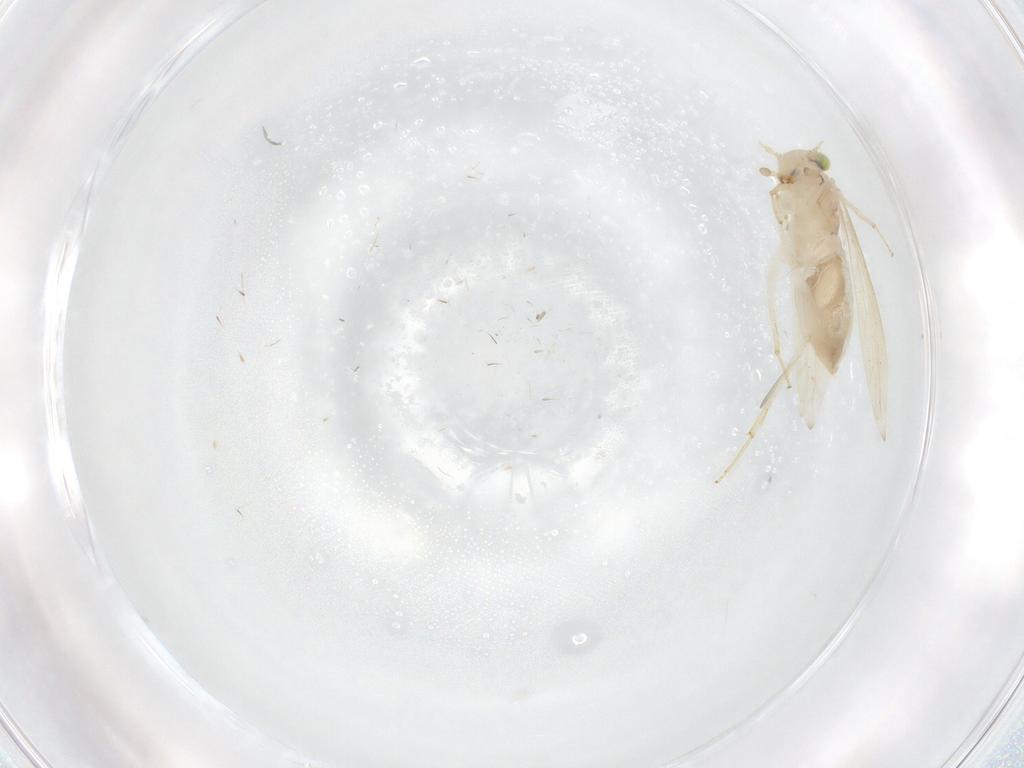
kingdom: Animalia
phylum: Arthropoda
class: Insecta
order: Psocodea
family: Lepidopsocidae
